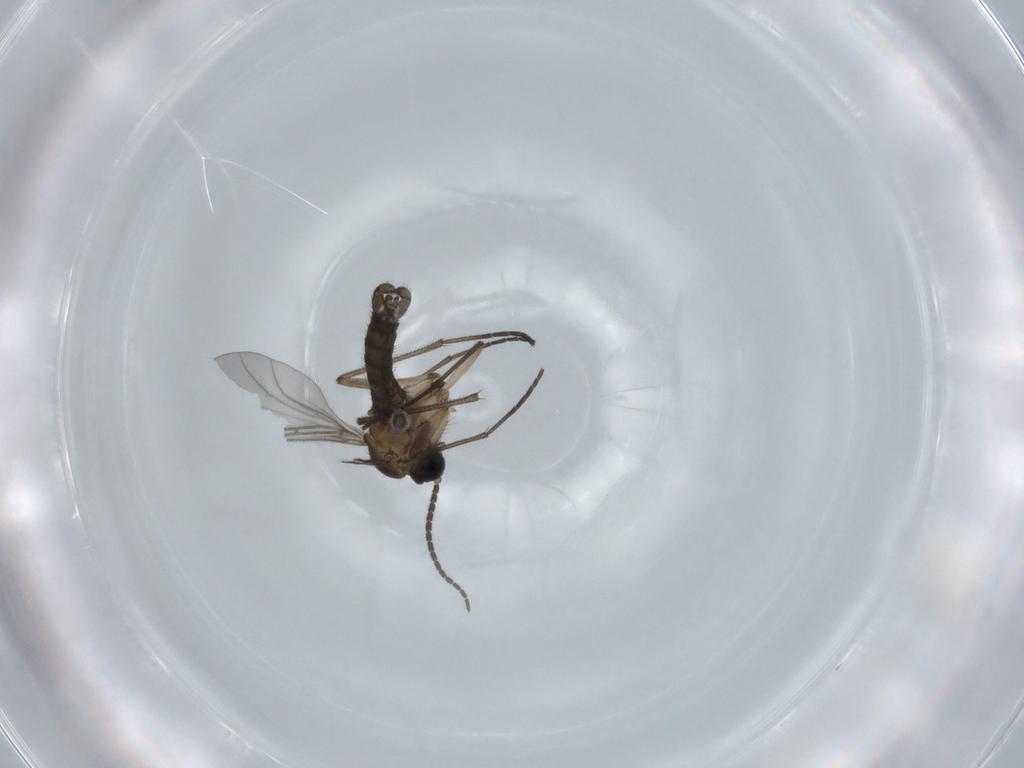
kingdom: Animalia
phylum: Arthropoda
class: Insecta
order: Diptera
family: Sciaridae
